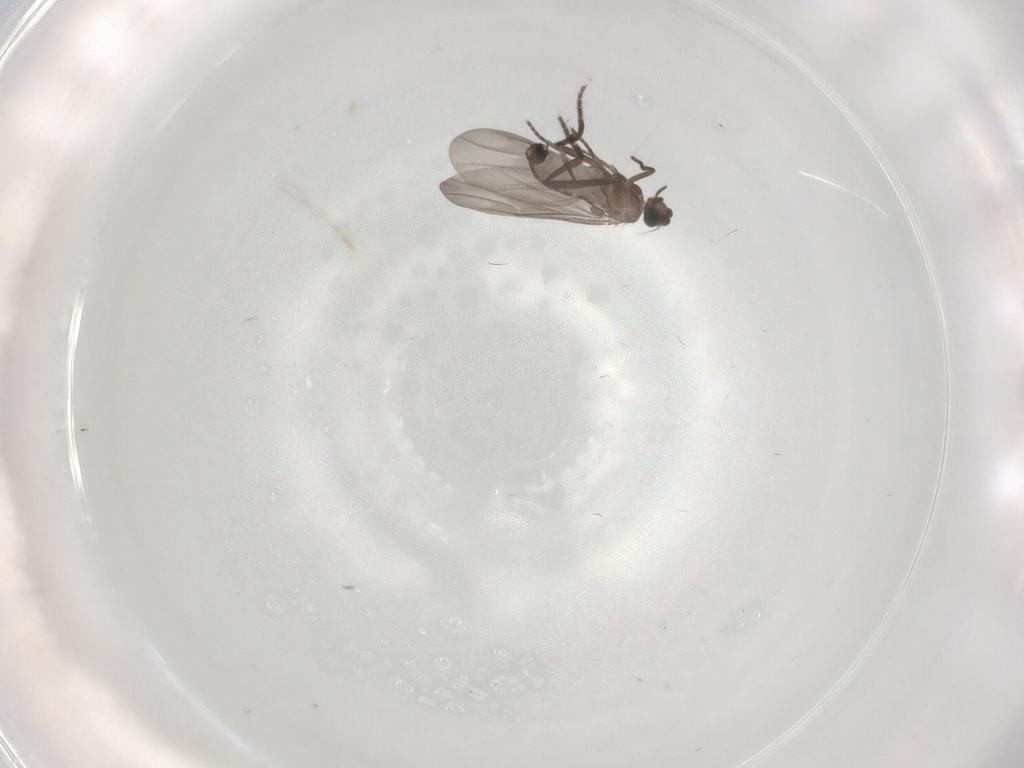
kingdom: Animalia
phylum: Arthropoda
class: Insecta
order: Diptera
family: Phoridae
